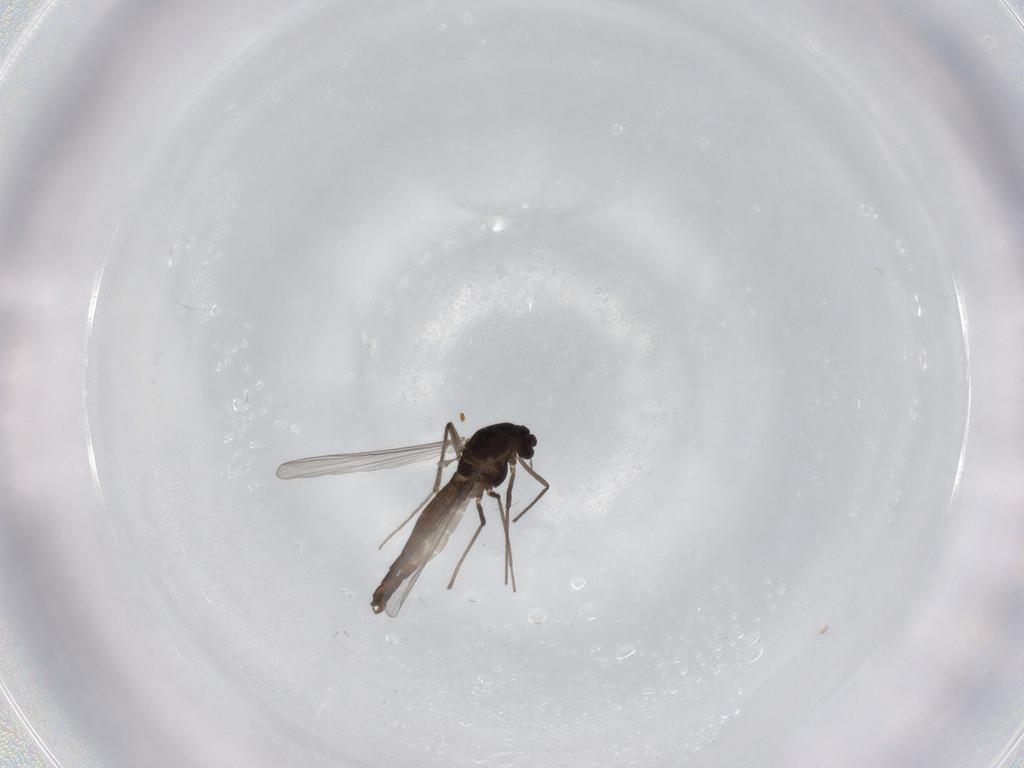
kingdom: Animalia
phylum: Arthropoda
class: Insecta
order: Diptera
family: Chironomidae
